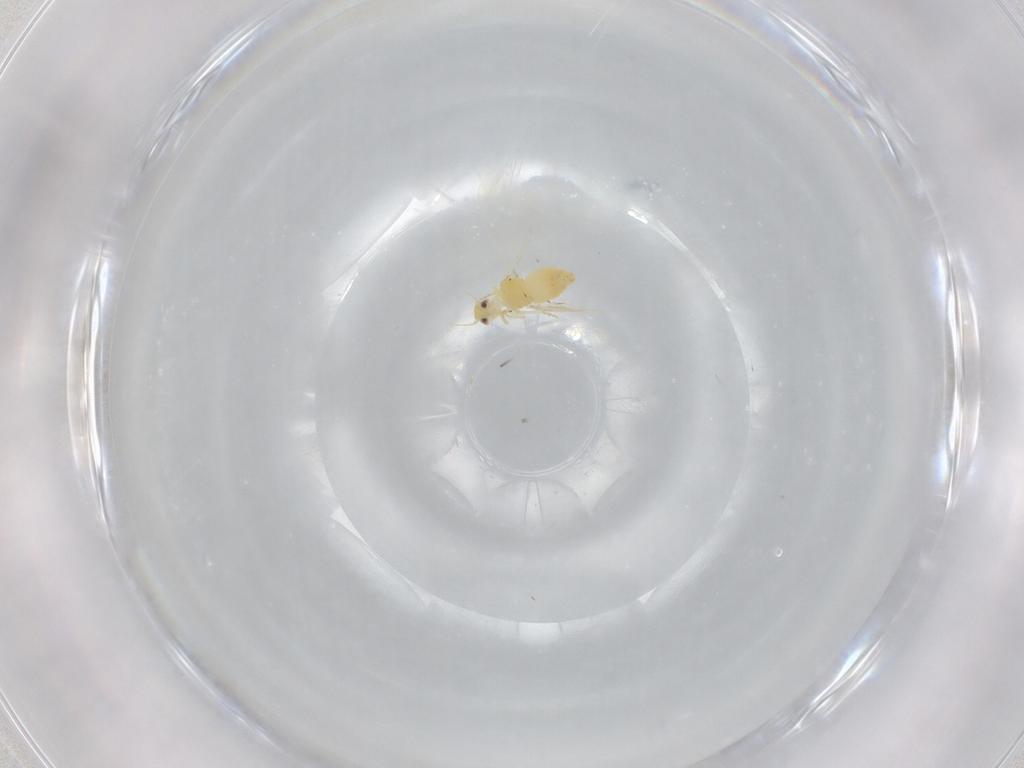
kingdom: Animalia
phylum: Arthropoda
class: Insecta
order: Hemiptera
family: Aleyrodidae
